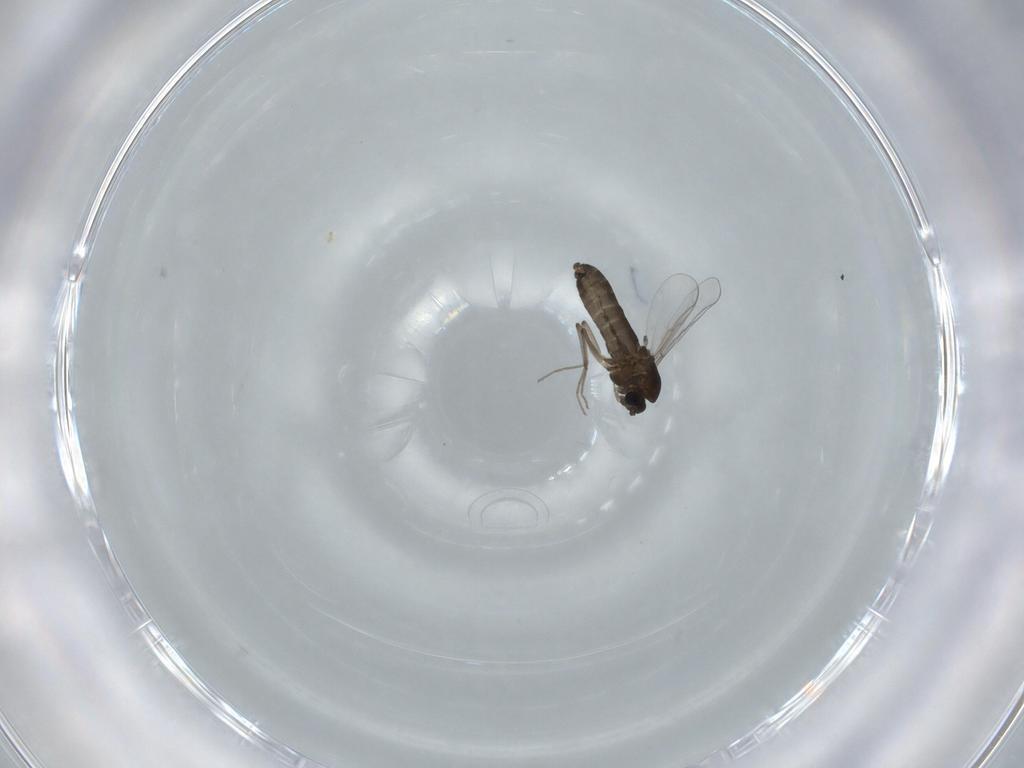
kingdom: Animalia
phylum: Arthropoda
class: Insecta
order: Diptera
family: Chironomidae
